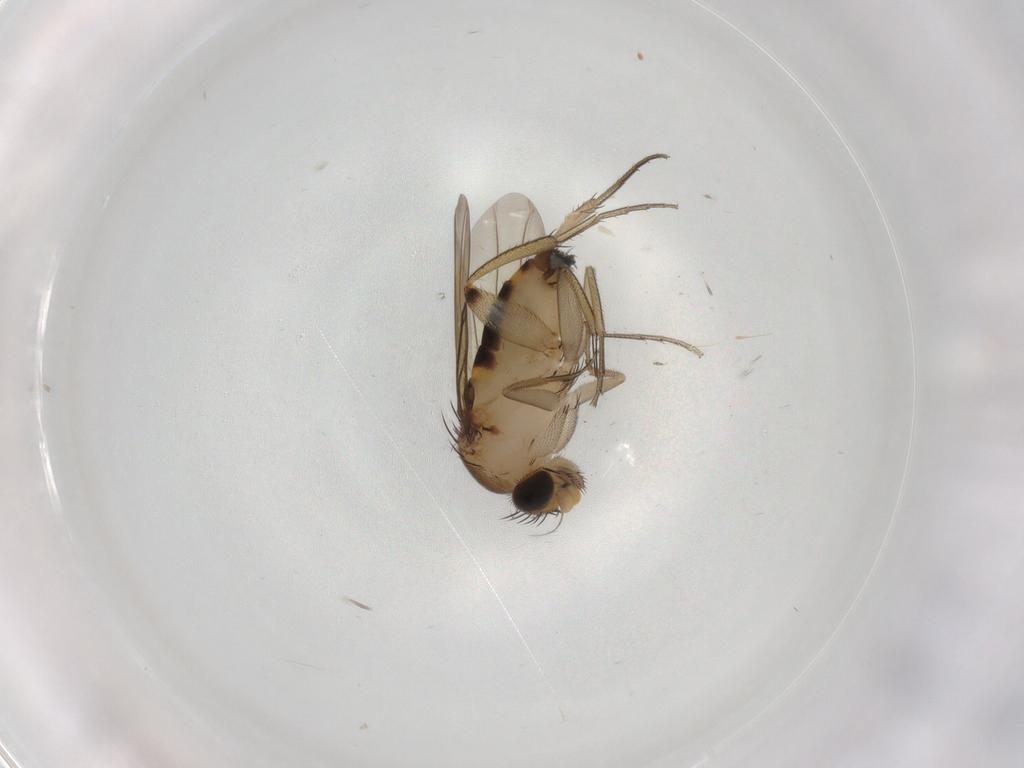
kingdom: Animalia
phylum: Arthropoda
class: Insecta
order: Diptera
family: Phoridae
